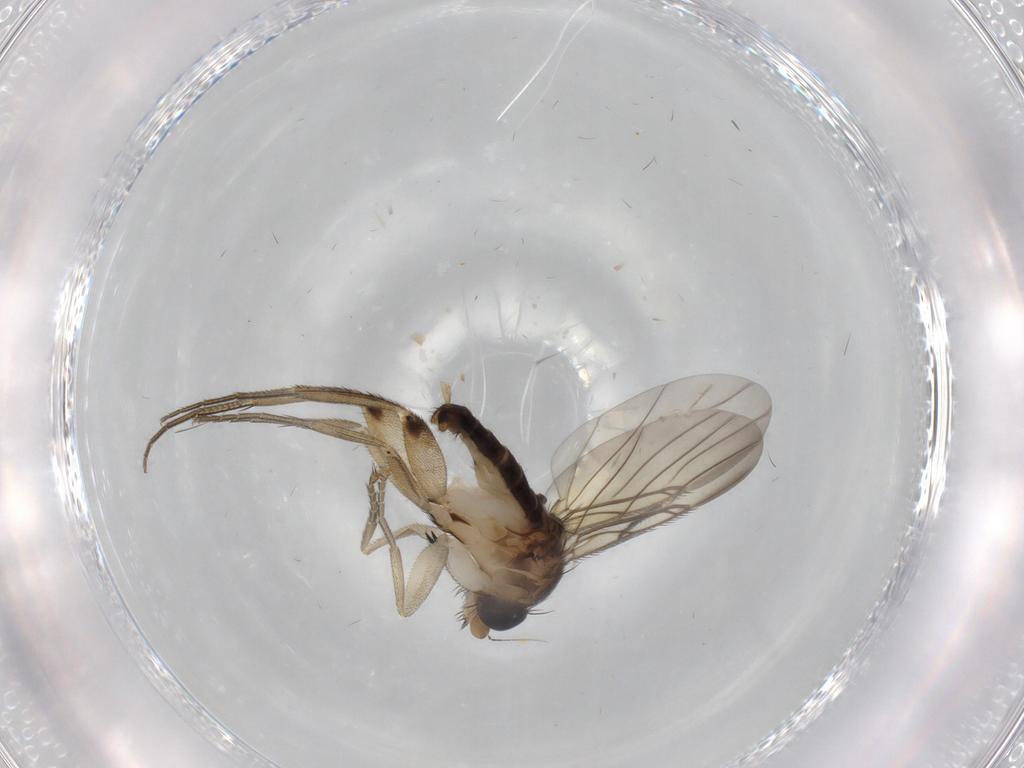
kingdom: Animalia
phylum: Arthropoda
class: Insecta
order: Diptera
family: Phoridae
